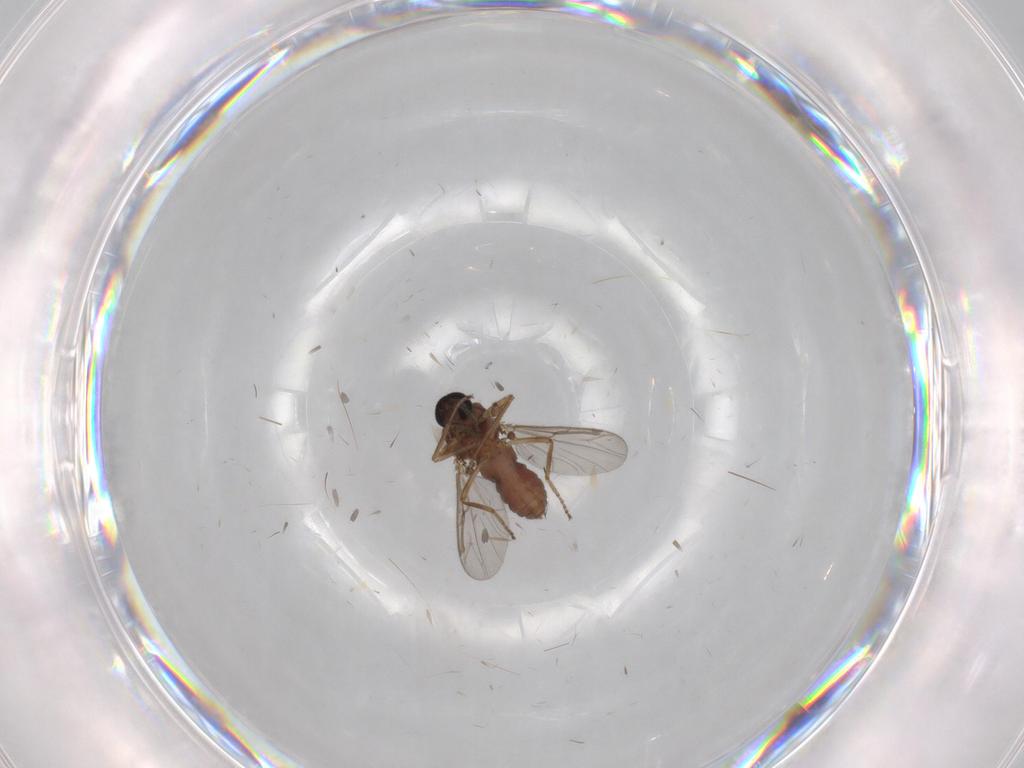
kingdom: Animalia
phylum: Arthropoda
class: Insecta
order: Diptera
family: Ceratopogonidae
